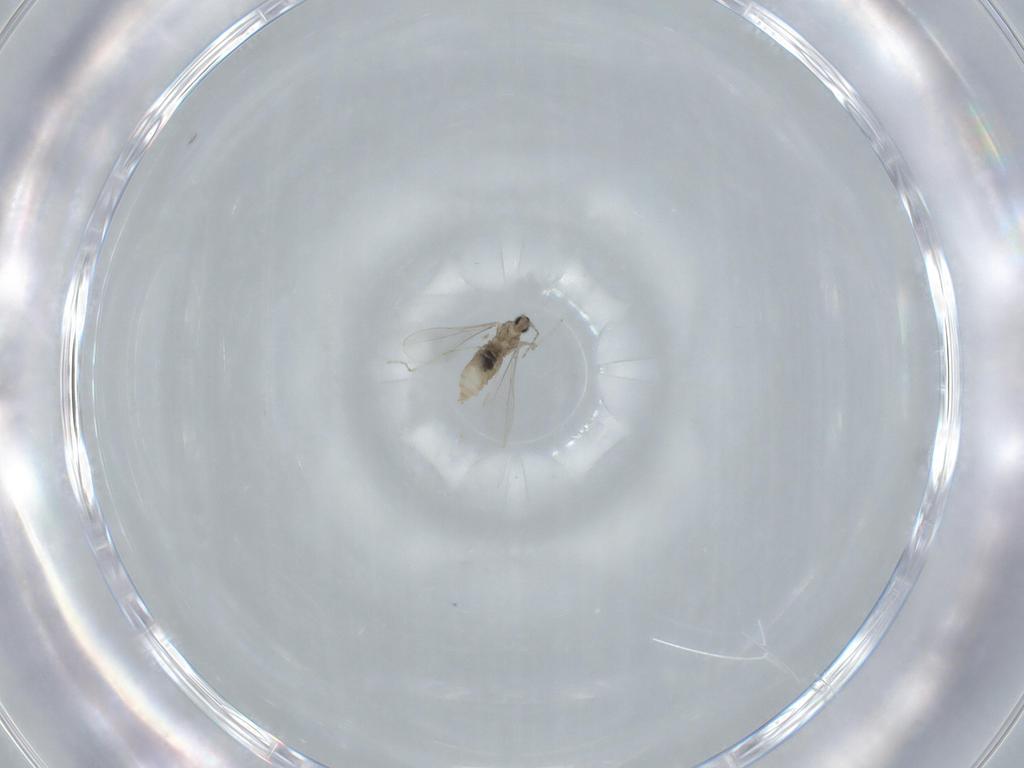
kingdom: Animalia
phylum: Arthropoda
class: Insecta
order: Diptera
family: Cecidomyiidae
